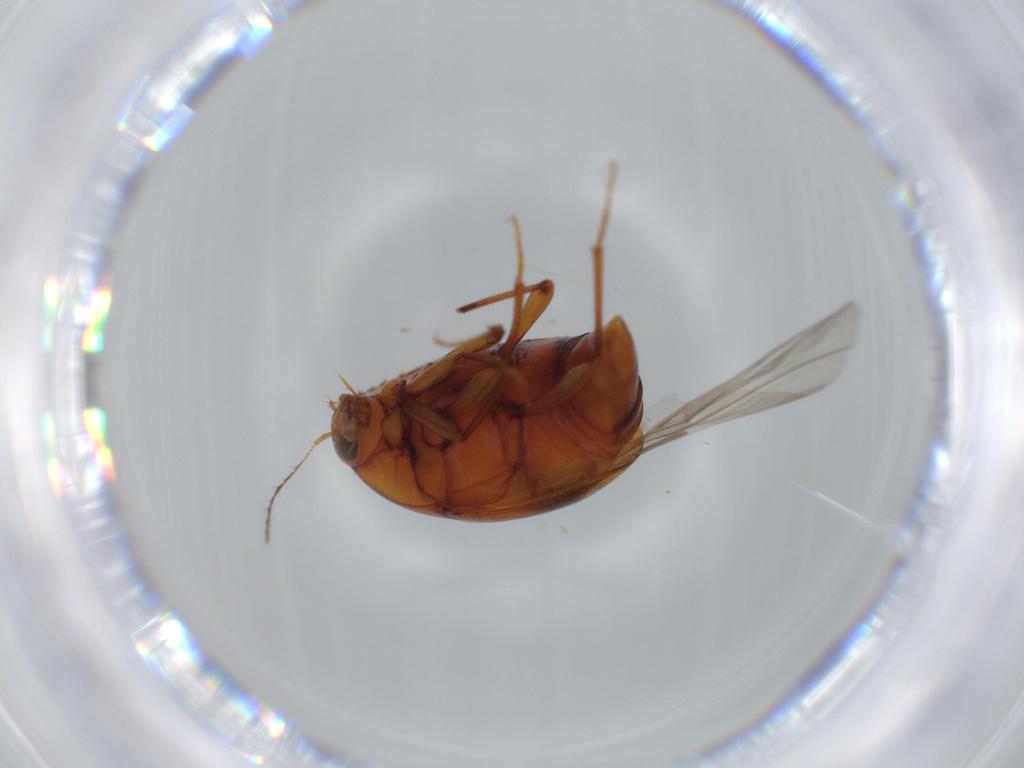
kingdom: Animalia
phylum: Arthropoda
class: Insecta
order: Coleoptera
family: Staphylinidae
